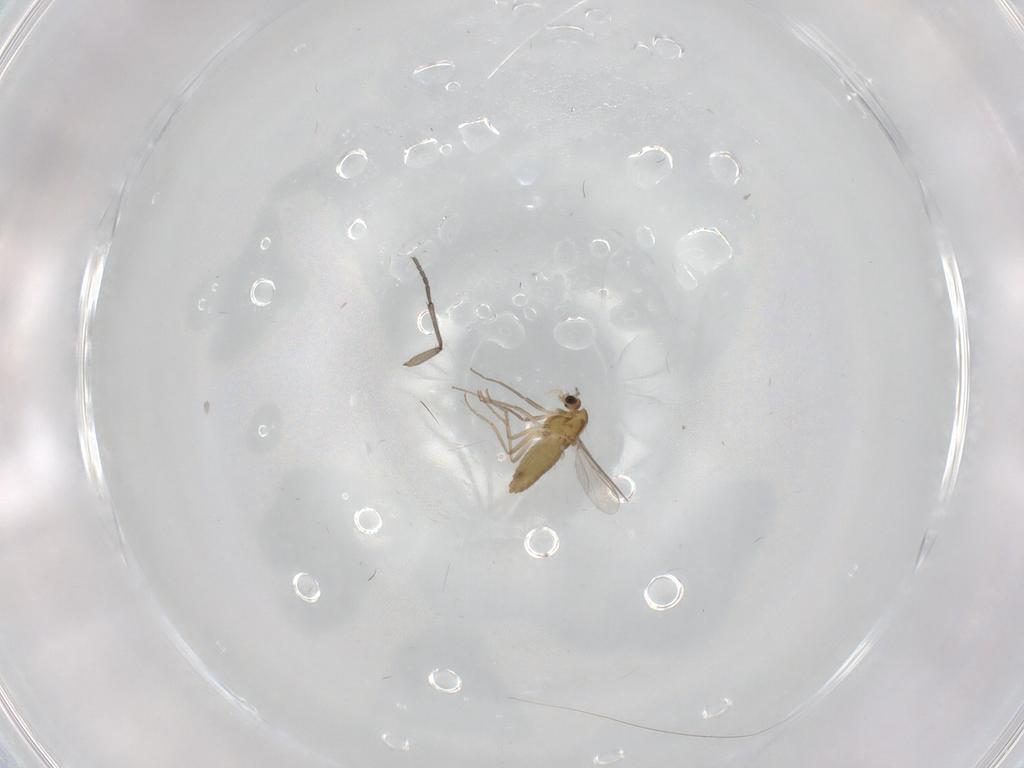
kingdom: Animalia
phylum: Arthropoda
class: Insecta
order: Diptera
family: Chironomidae
